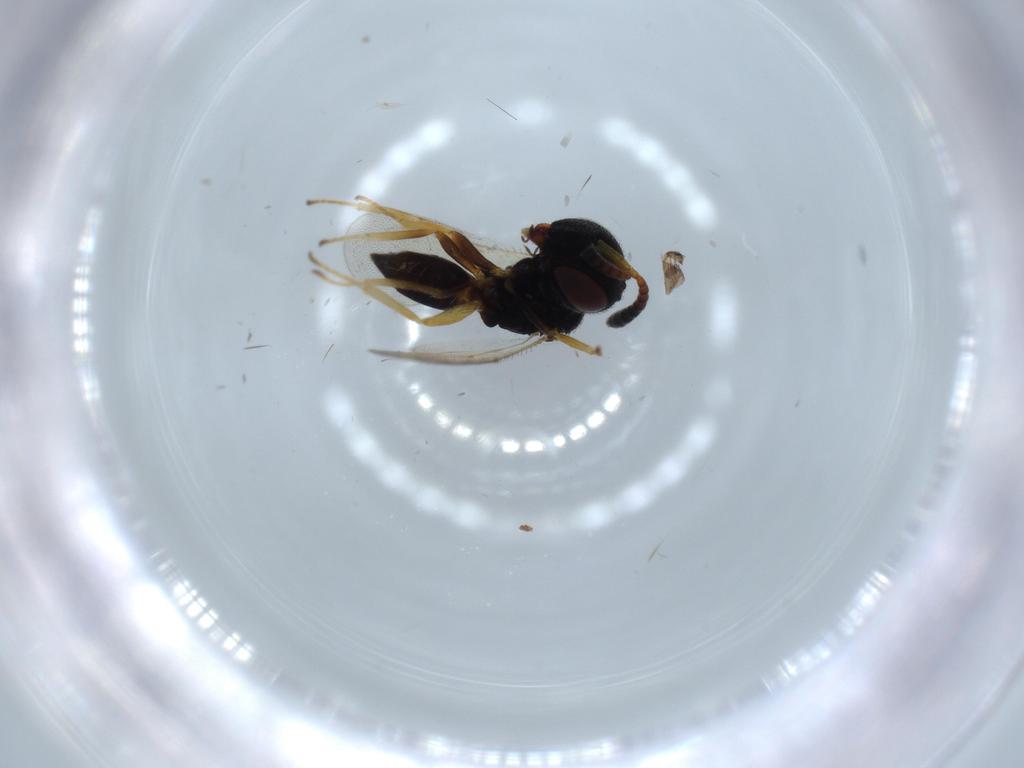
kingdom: Animalia
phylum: Arthropoda
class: Insecta
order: Hymenoptera
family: Pteromalidae
